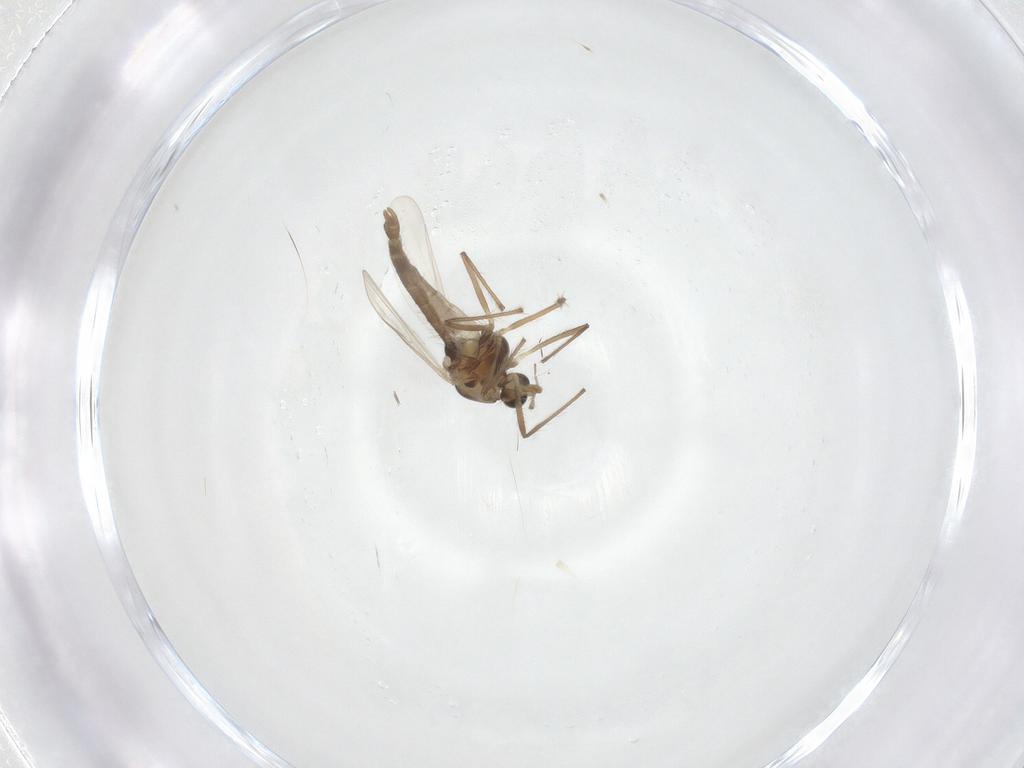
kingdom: Animalia
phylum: Arthropoda
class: Insecta
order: Diptera
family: Chironomidae
